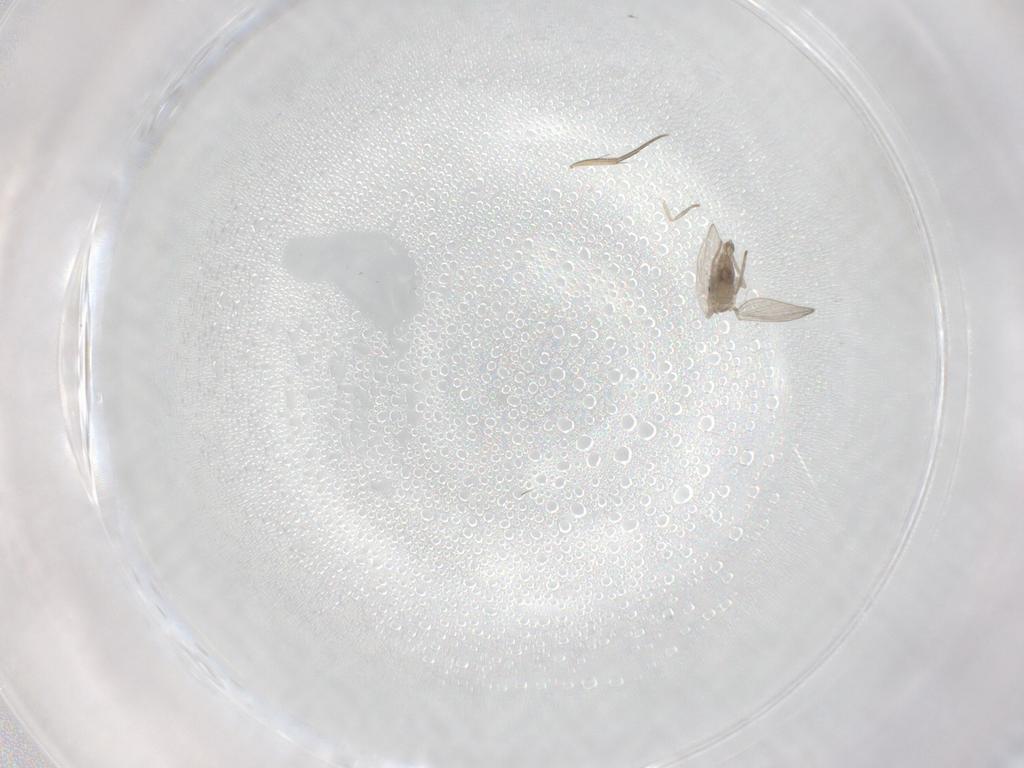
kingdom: Animalia
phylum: Arthropoda
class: Insecta
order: Diptera
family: Psychodidae
